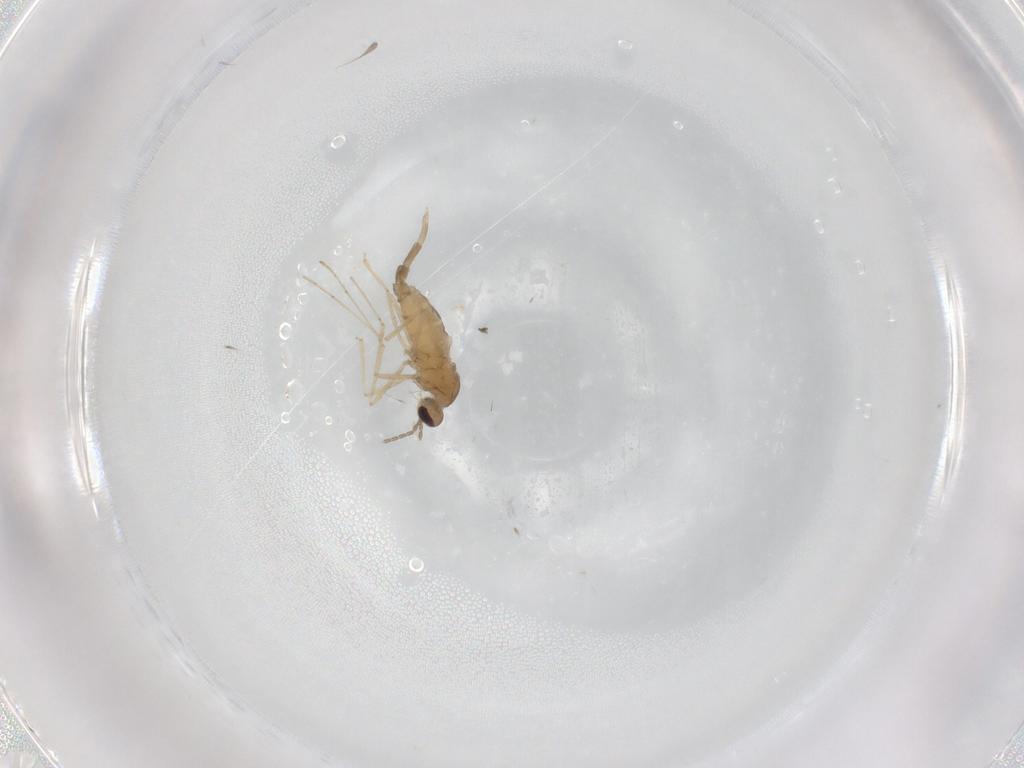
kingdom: Animalia
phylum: Arthropoda
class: Insecta
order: Diptera
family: Cecidomyiidae
